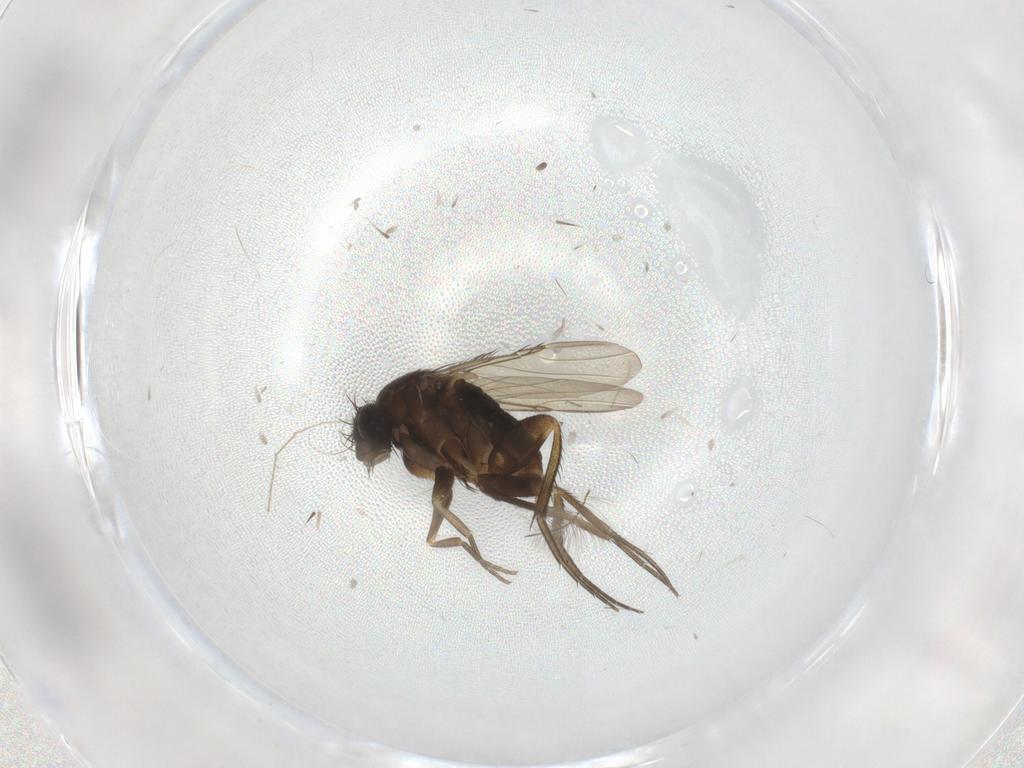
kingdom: Animalia
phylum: Arthropoda
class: Insecta
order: Diptera
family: Phoridae
